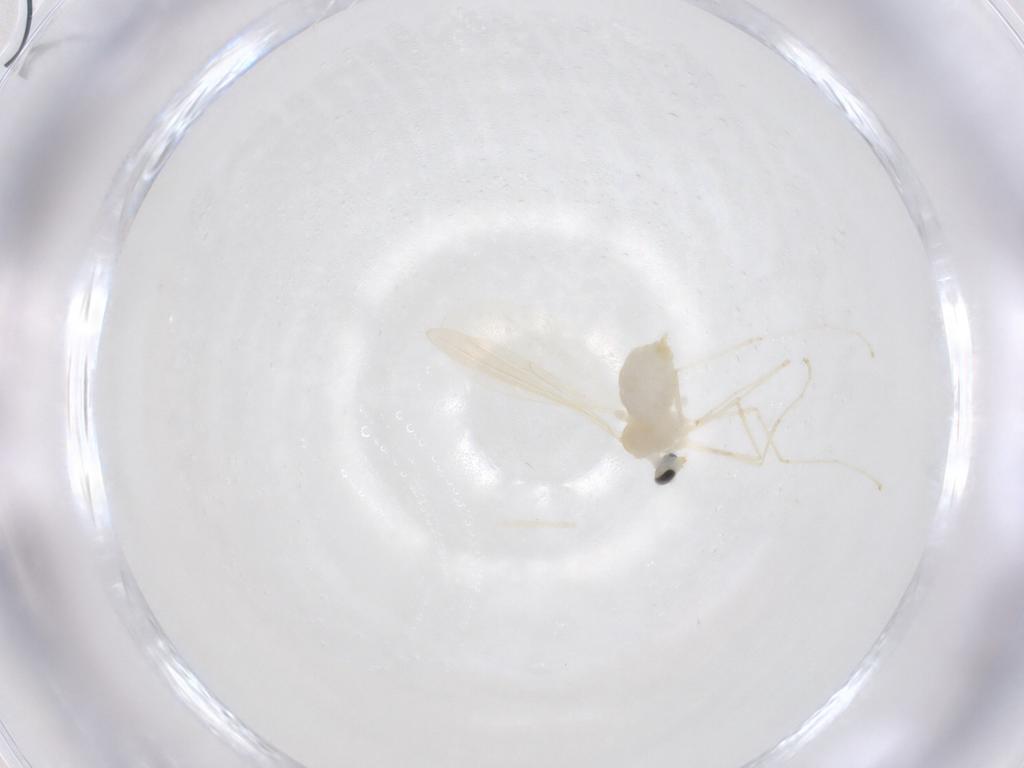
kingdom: Animalia
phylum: Arthropoda
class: Insecta
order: Diptera
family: Cecidomyiidae
